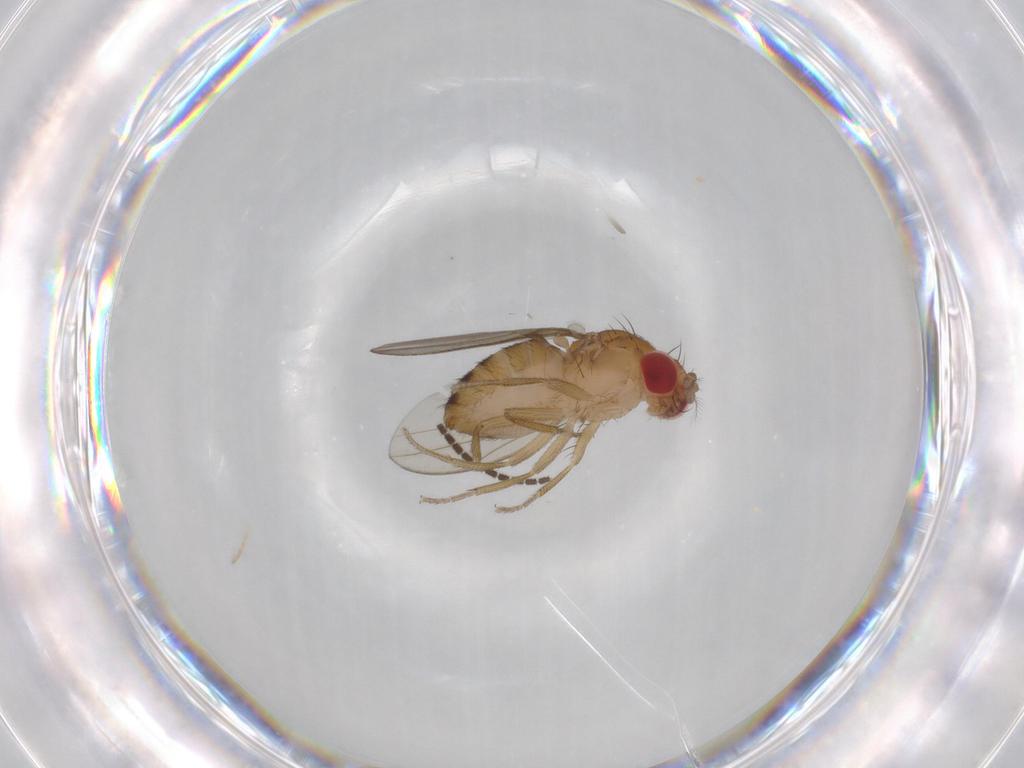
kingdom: Animalia
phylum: Arthropoda
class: Insecta
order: Diptera
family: Drosophilidae
